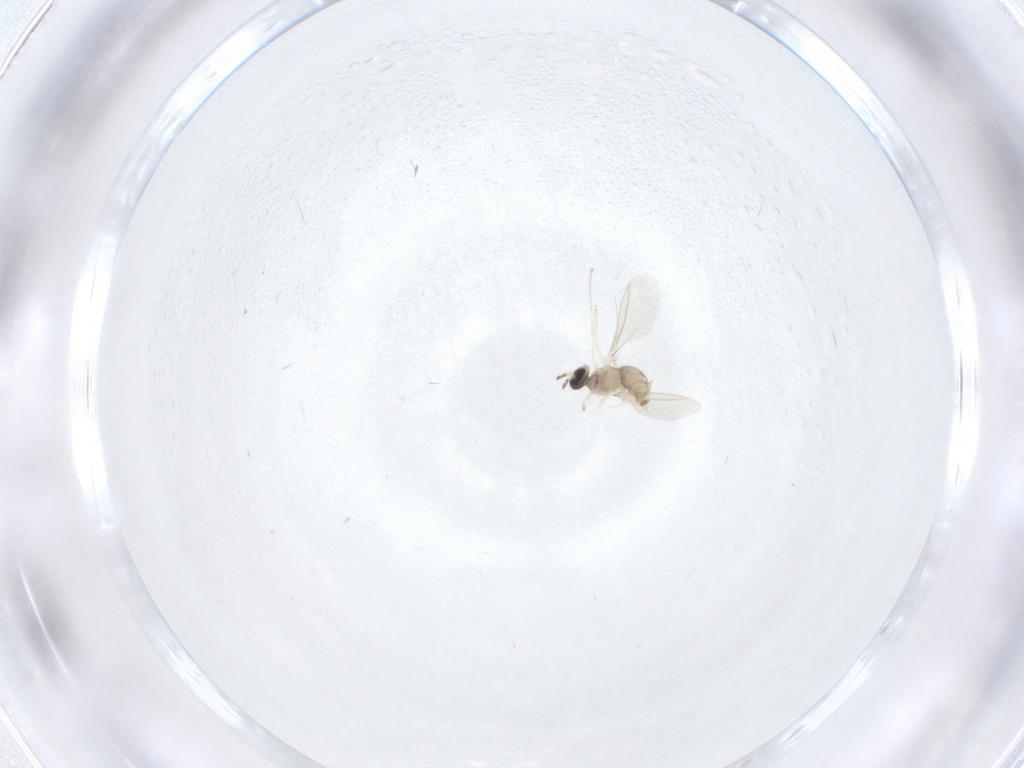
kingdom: Animalia
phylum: Arthropoda
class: Insecta
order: Diptera
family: Cecidomyiidae
